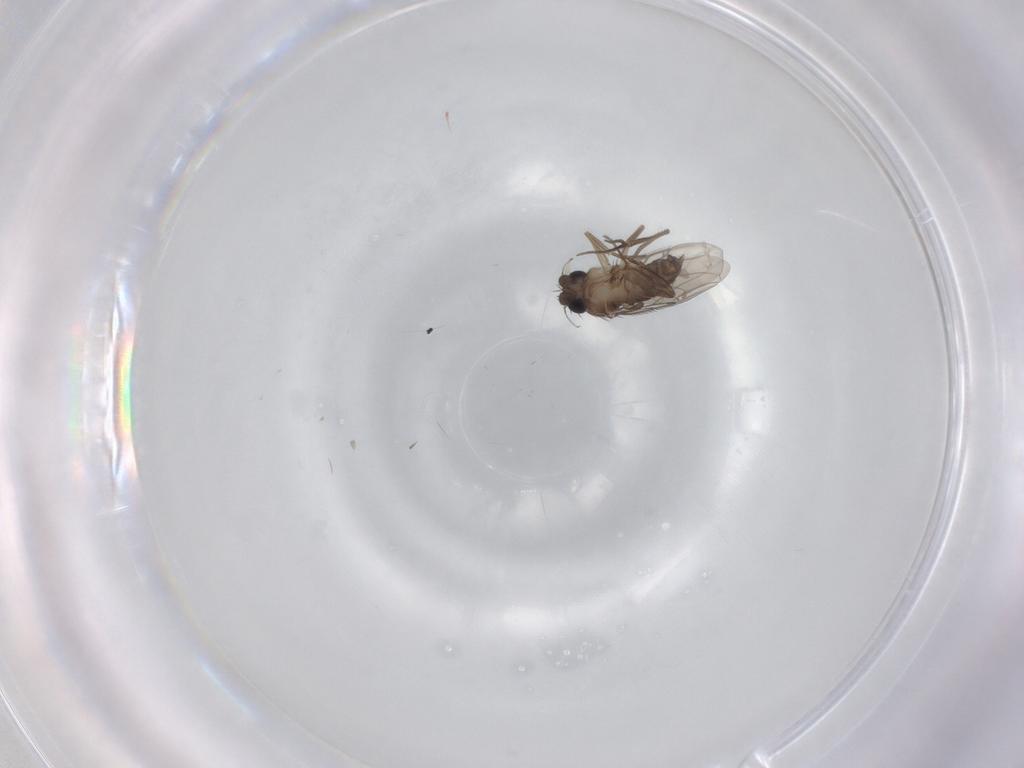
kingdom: Animalia
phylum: Arthropoda
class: Insecta
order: Diptera
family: Phoridae
